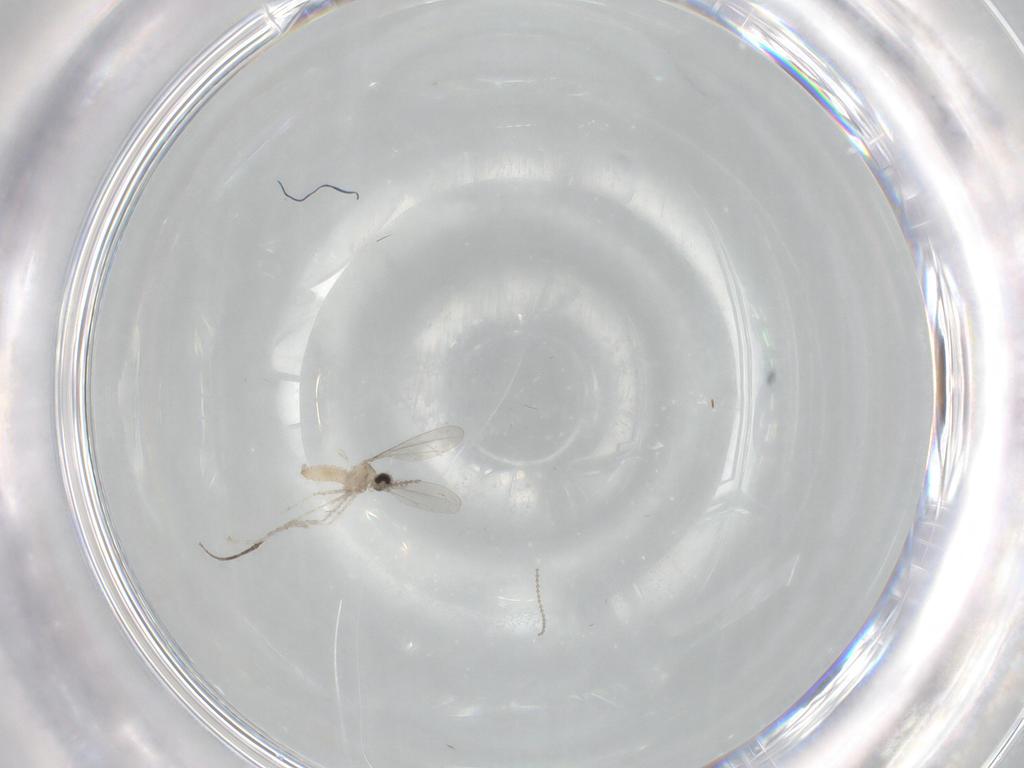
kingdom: Animalia
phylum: Arthropoda
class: Insecta
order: Diptera
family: Cecidomyiidae
